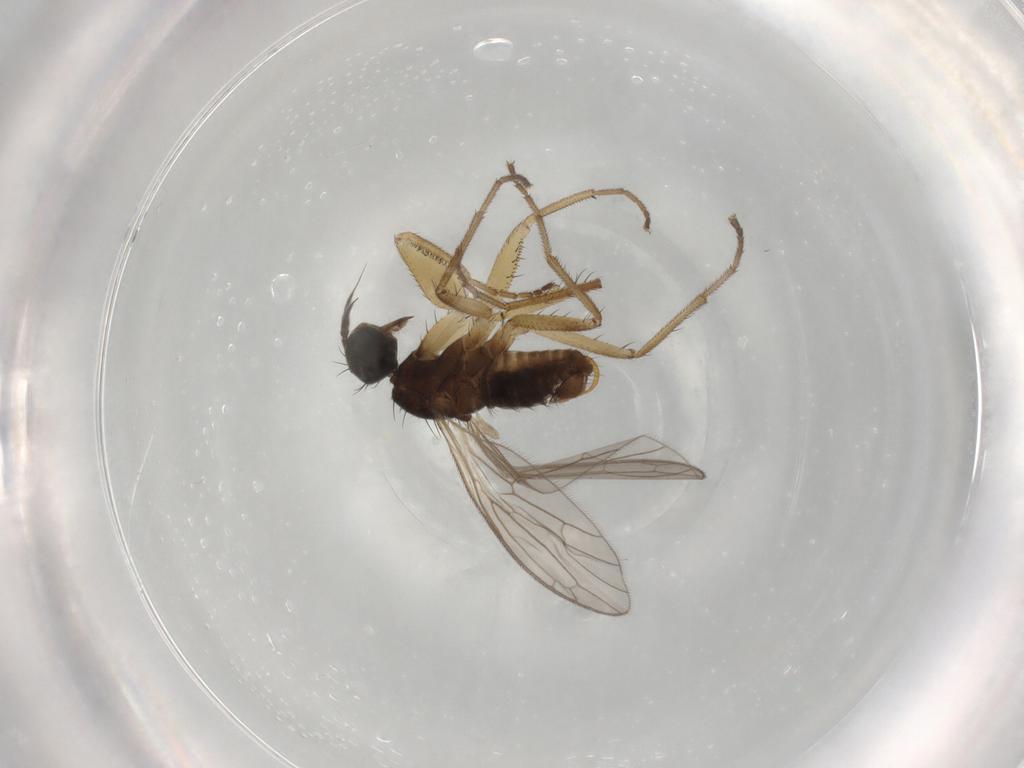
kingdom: Animalia
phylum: Arthropoda
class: Insecta
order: Diptera
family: Empididae
